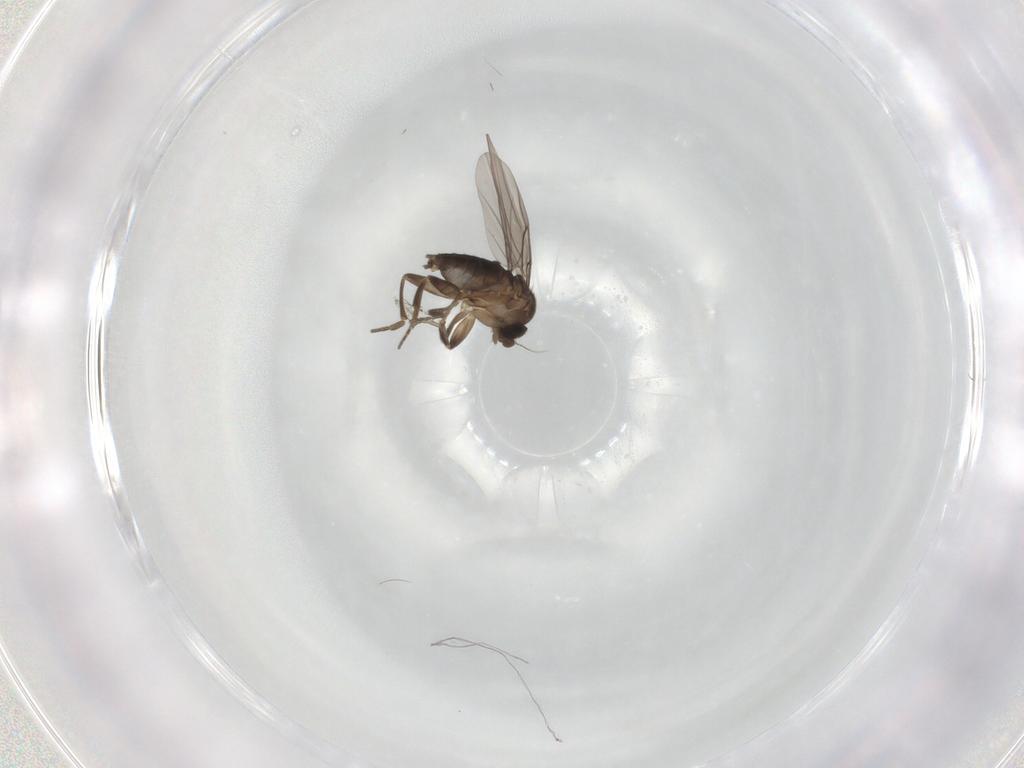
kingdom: Animalia
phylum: Arthropoda
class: Insecta
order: Diptera
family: Phoridae
